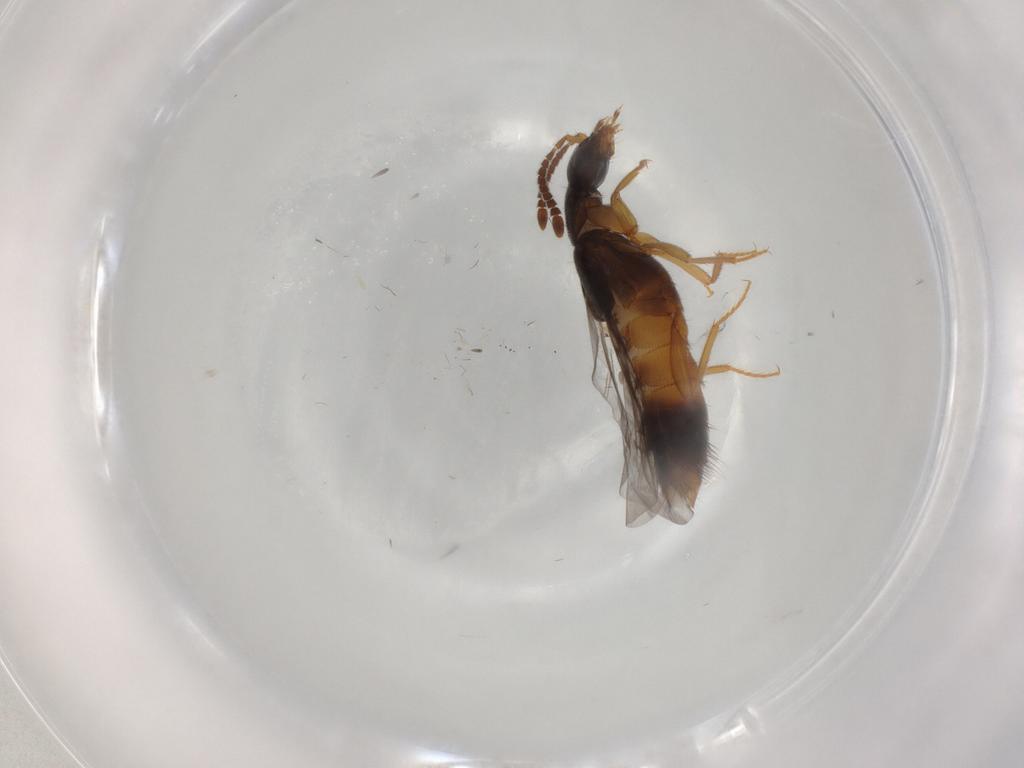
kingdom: Animalia
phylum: Arthropoda
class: Insecta
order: Coleoptera
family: Staphylinidae
